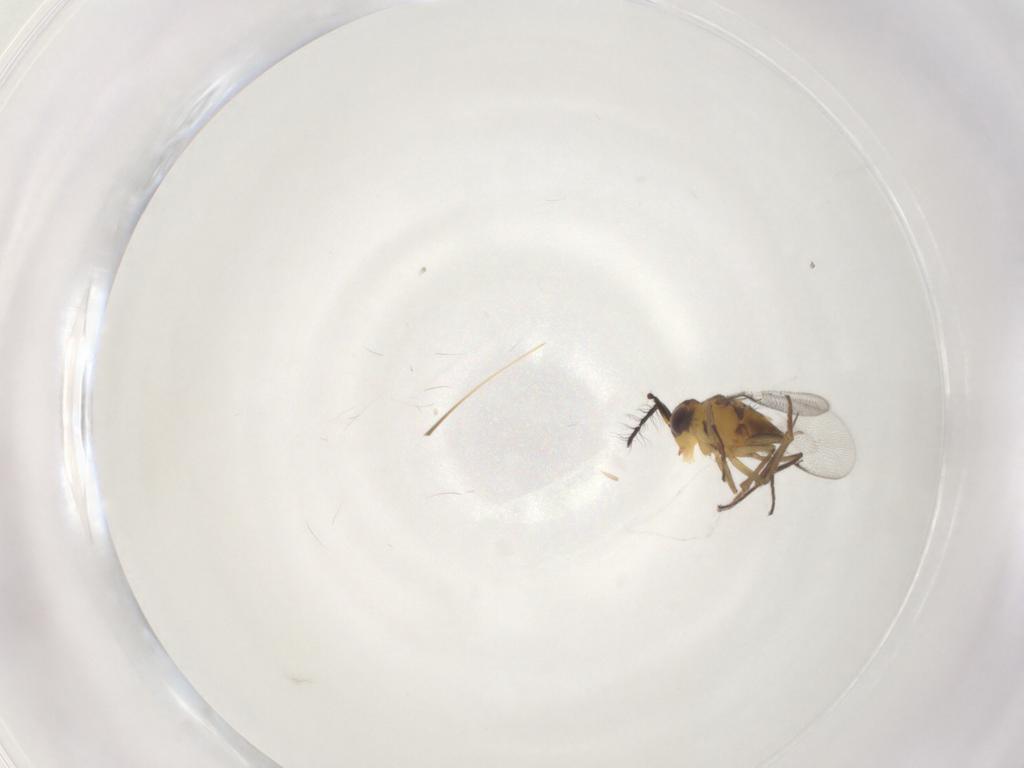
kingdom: Animalia
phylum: Arthropoda
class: Insecta
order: Diptera
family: Cecidomyiidae
